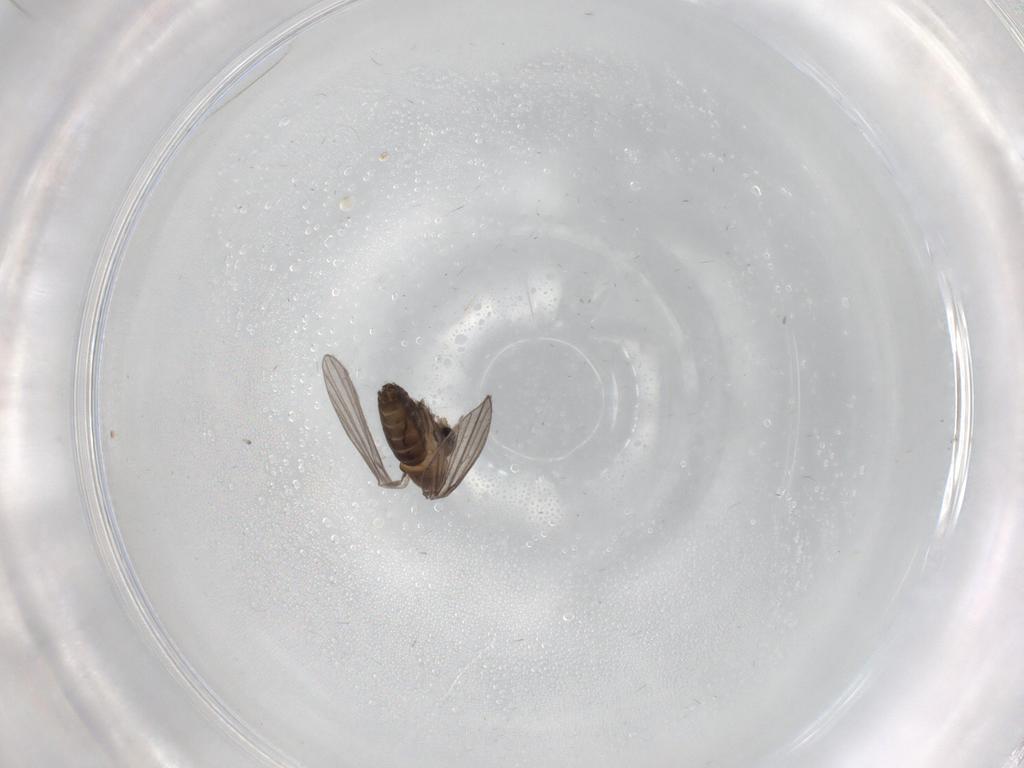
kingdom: Animalia
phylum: Arthropoda
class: Insecta
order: Diptera
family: Psychodidae
